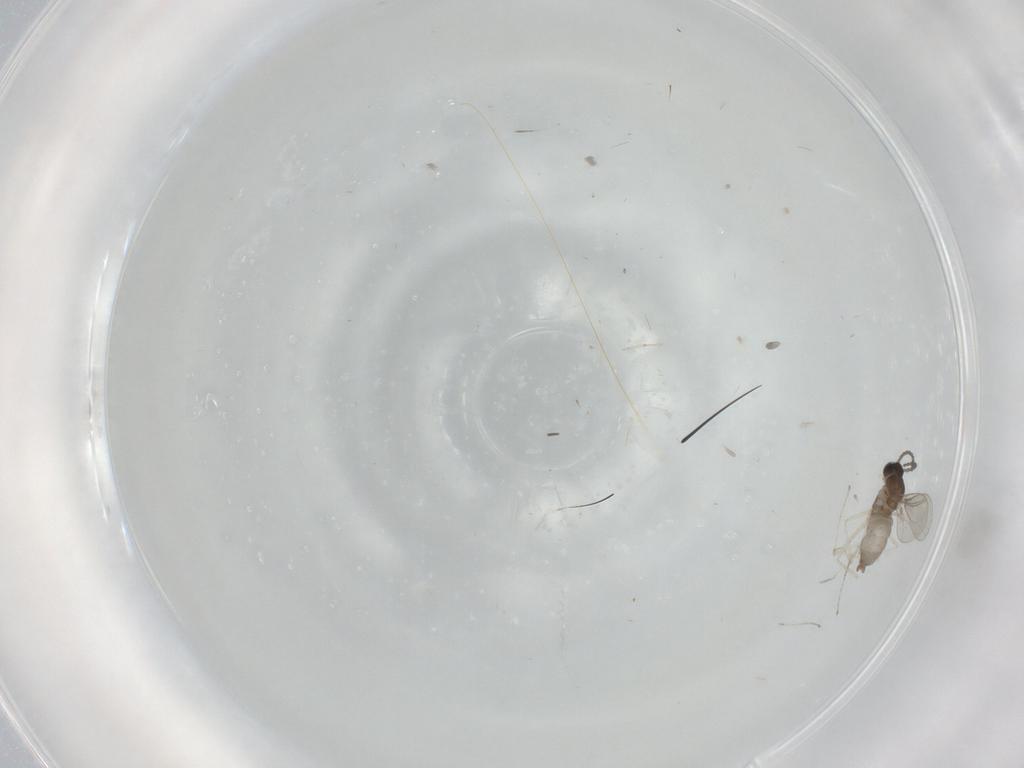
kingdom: Animalia
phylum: Arthropoda
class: Insecta
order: Diptera
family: Cecidomyiidae
